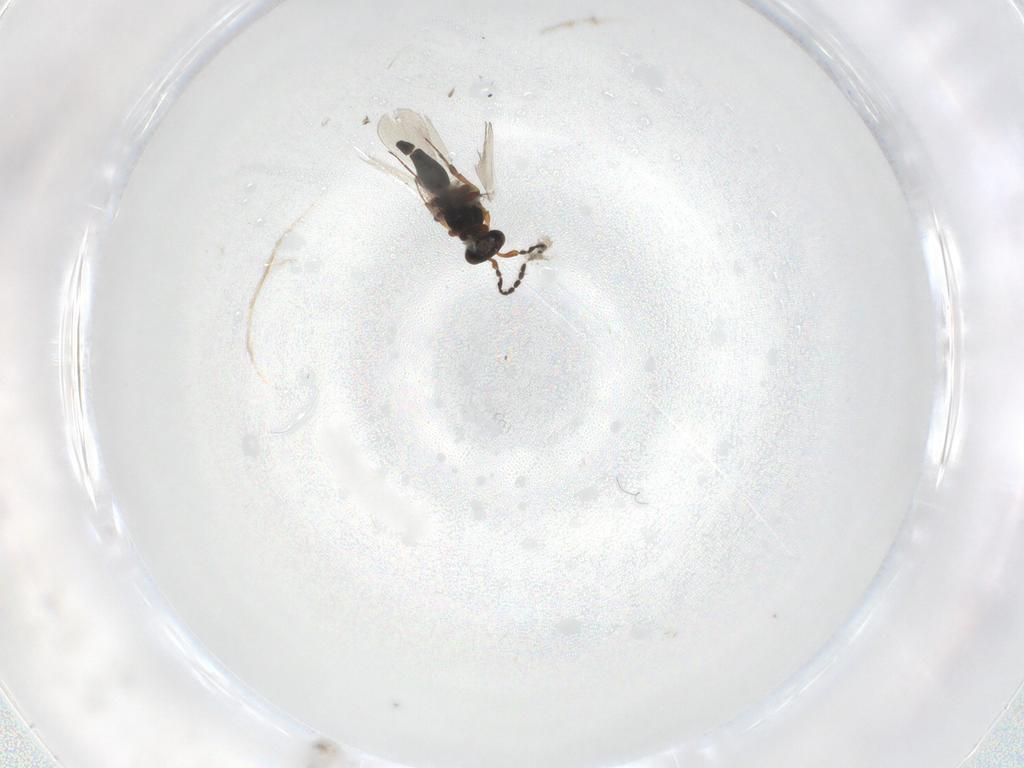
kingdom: Animalia
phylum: Arthropoda
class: Insecta
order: Hymenoptera
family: Platygastridae
